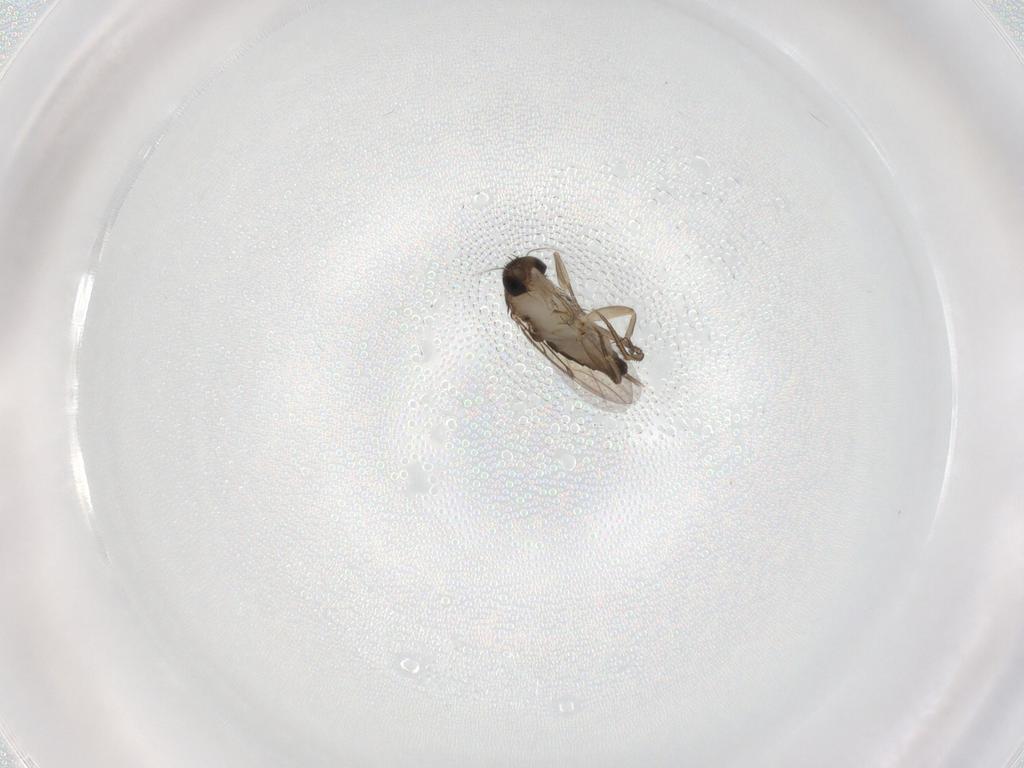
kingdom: Animalia
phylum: Arthropoda
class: Insecta
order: Diptera
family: Phoridae
